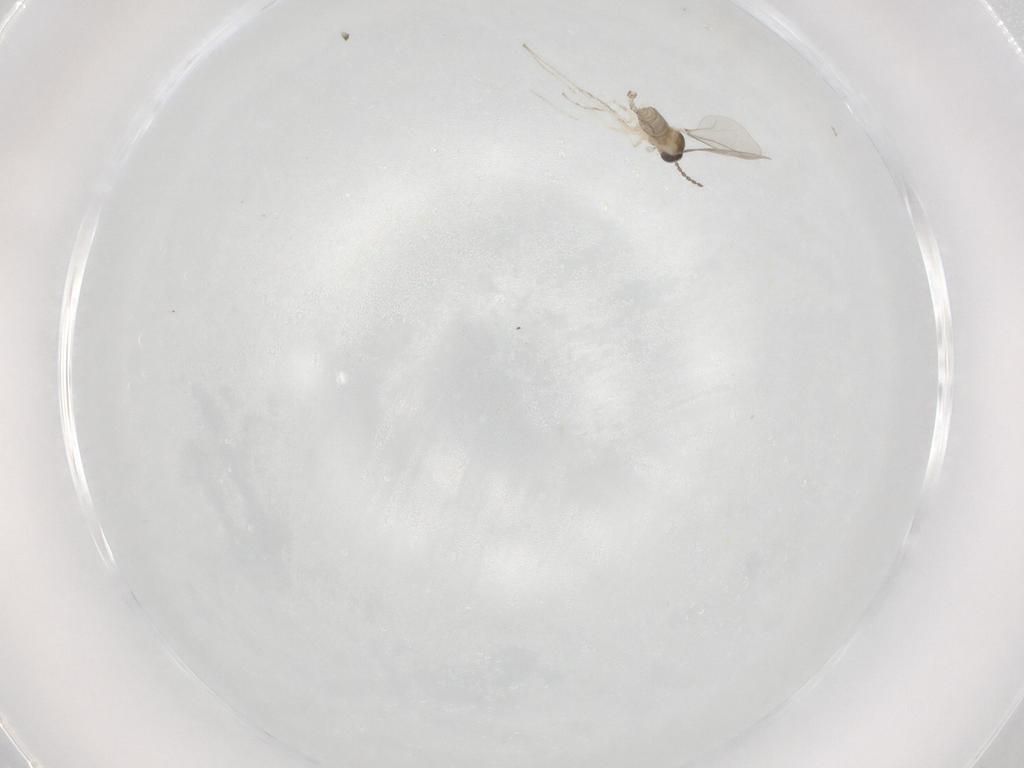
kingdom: Animalia
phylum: Arthropoda
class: Insecta
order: Diptera
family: Cecidomyiidae
